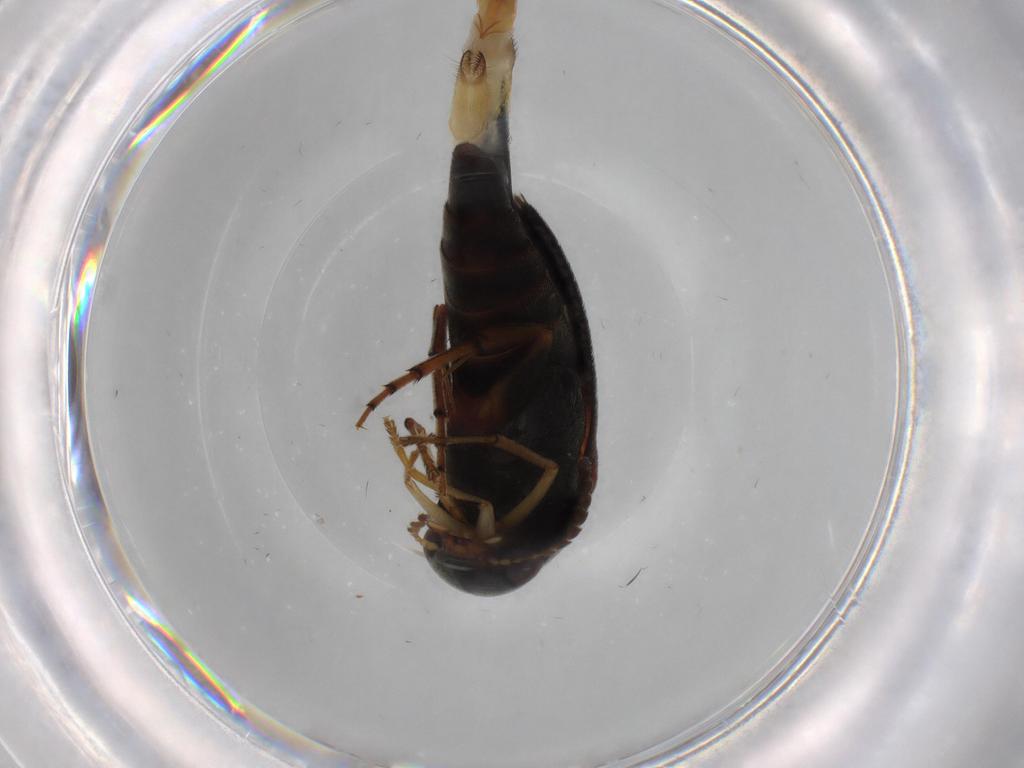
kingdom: Animalia
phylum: Arthropoda
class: Insecta
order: Coleoptera
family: Mordellidae
